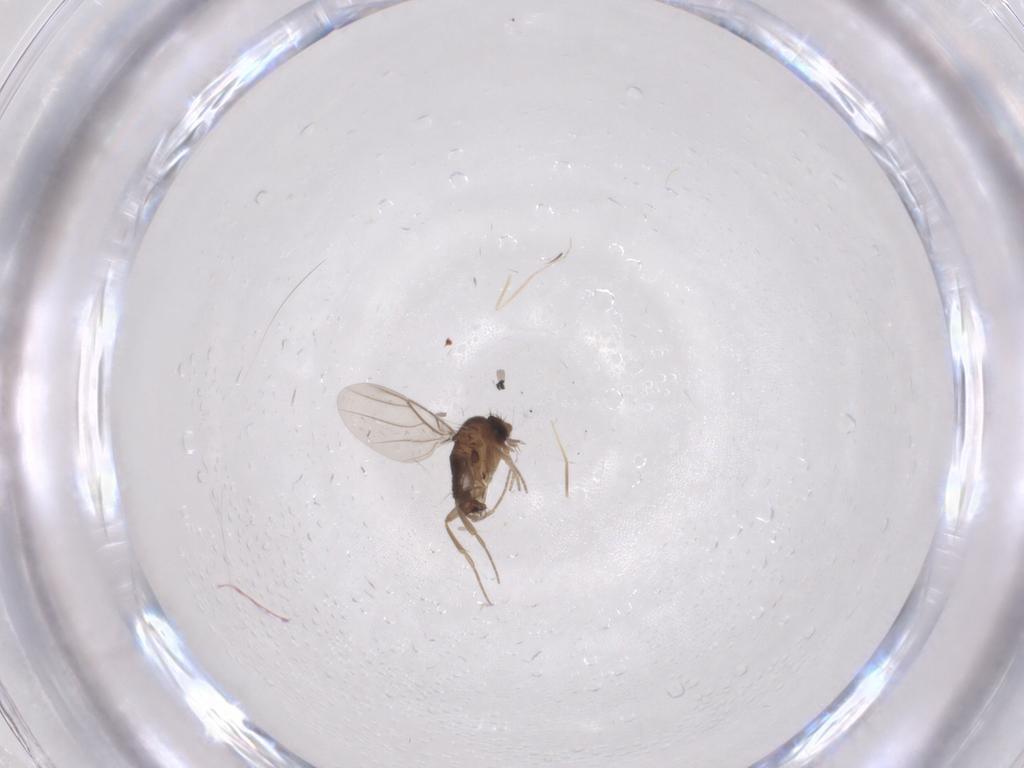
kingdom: Animalia
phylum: Arthropoda
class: Insecta
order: Diptera
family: Phoridae
